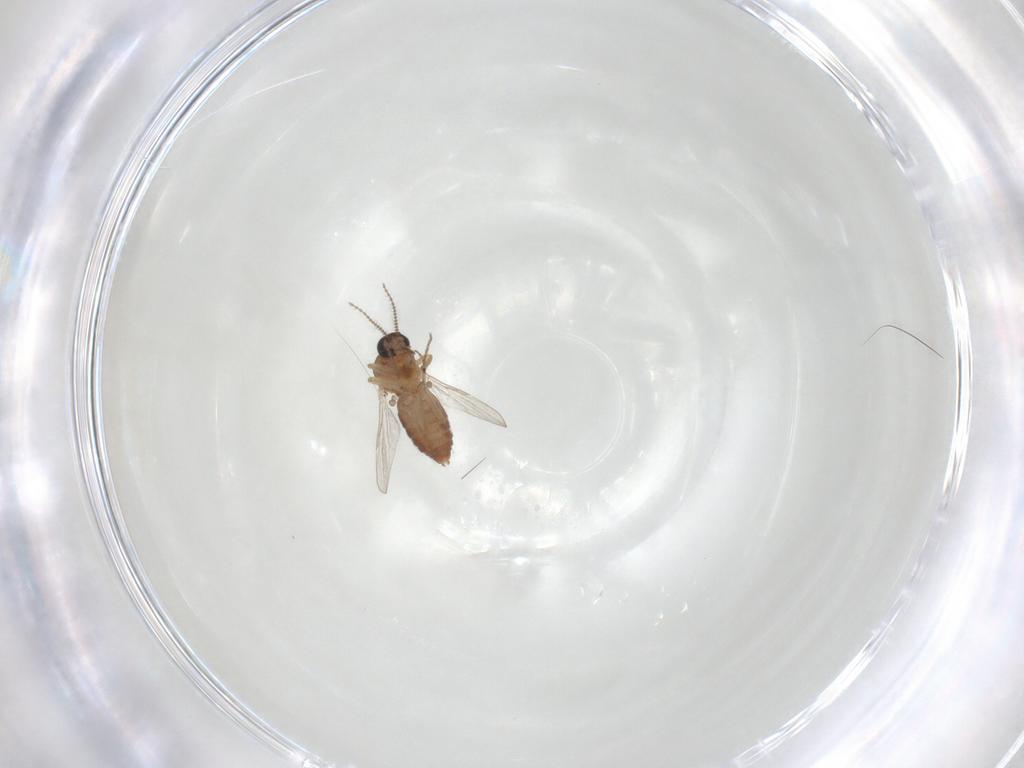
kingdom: Animalia
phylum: Arthropoda
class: Insecta
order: Diptera
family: Ceratopogonidae
